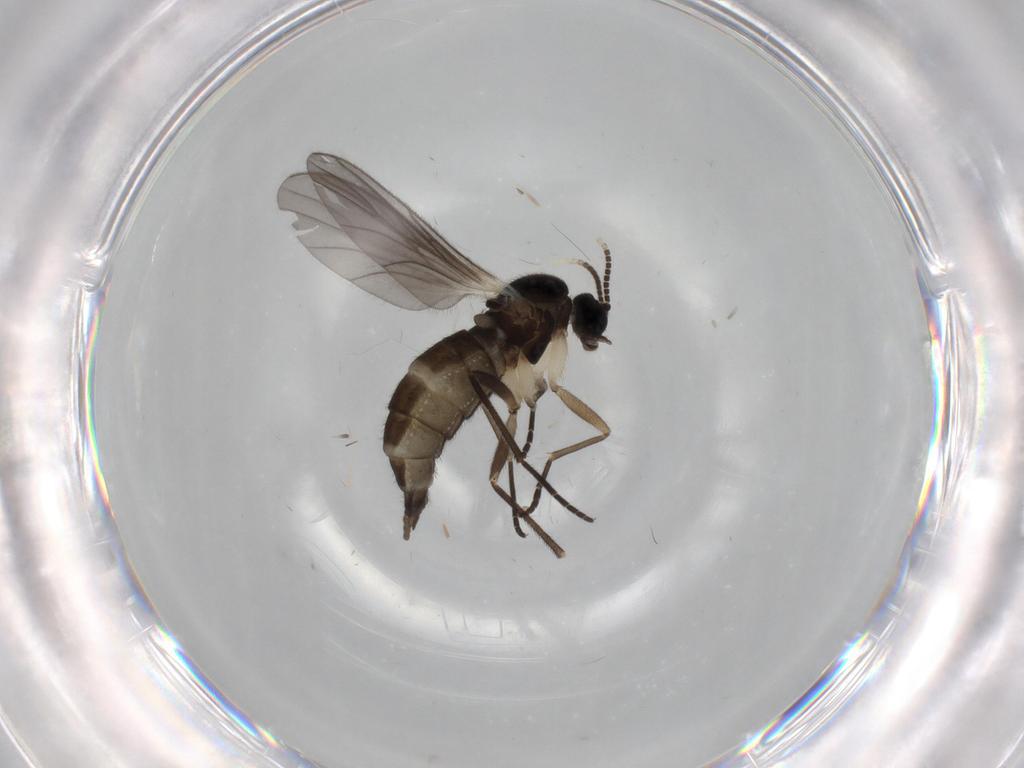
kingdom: Animalia
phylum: Arthropoda
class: Insecta
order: Diptera
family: Sciaridae
